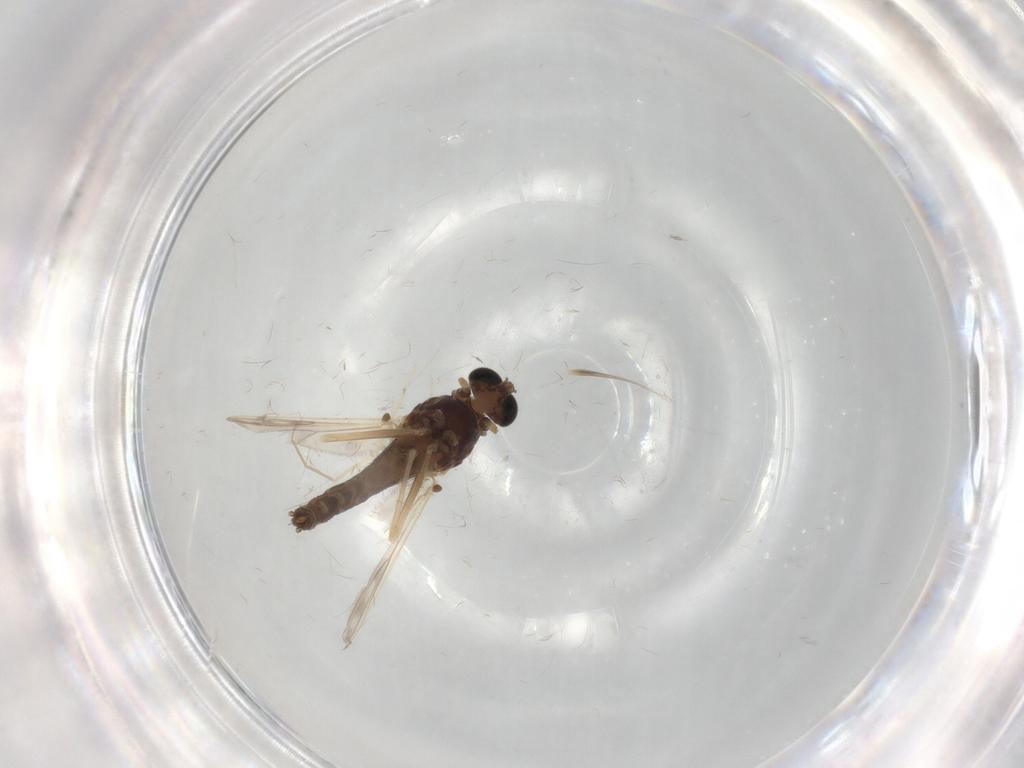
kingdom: Animalia
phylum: Arthropoda
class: Insecta
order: Diptera
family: Chironomidae
